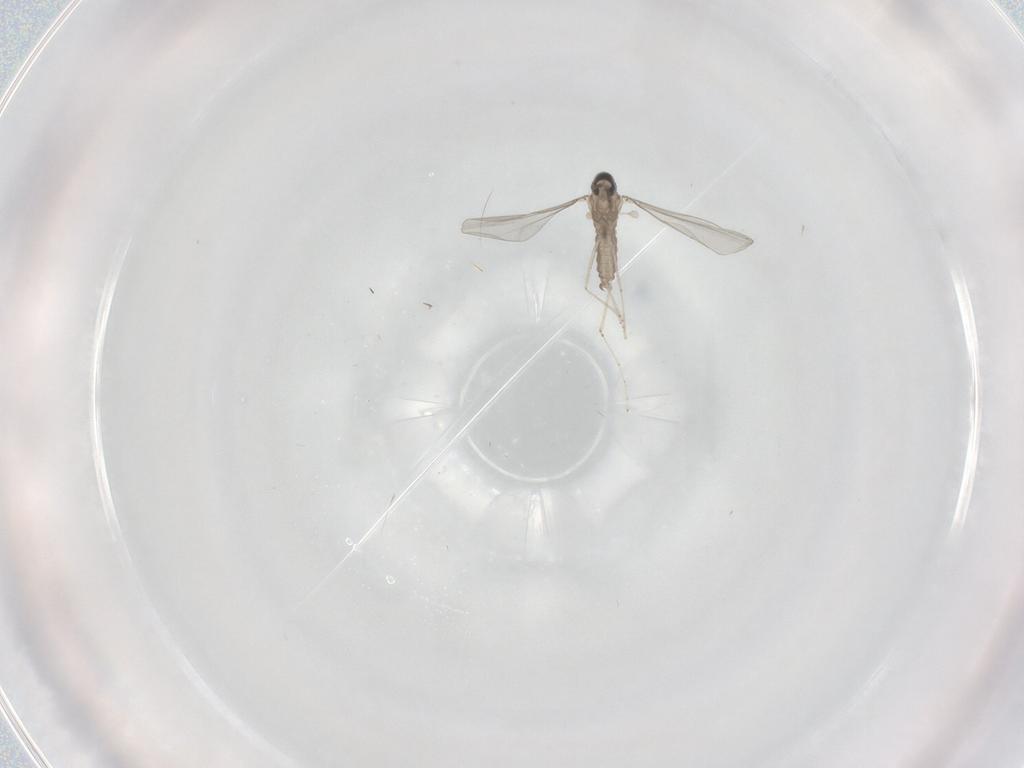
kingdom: Animalia
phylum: Arthropoda
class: Insecta
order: Diptera
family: Cecidomyiidae
